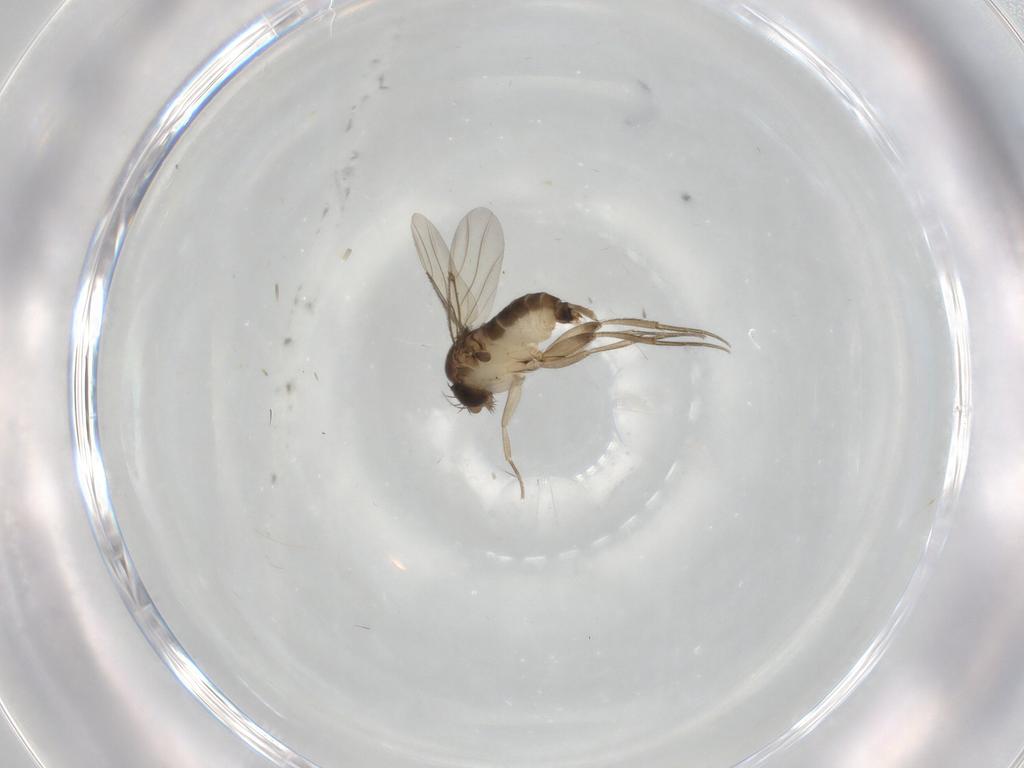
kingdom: Animalia
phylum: Arthropoda
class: Insecta
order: Diptera
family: Phoridae
